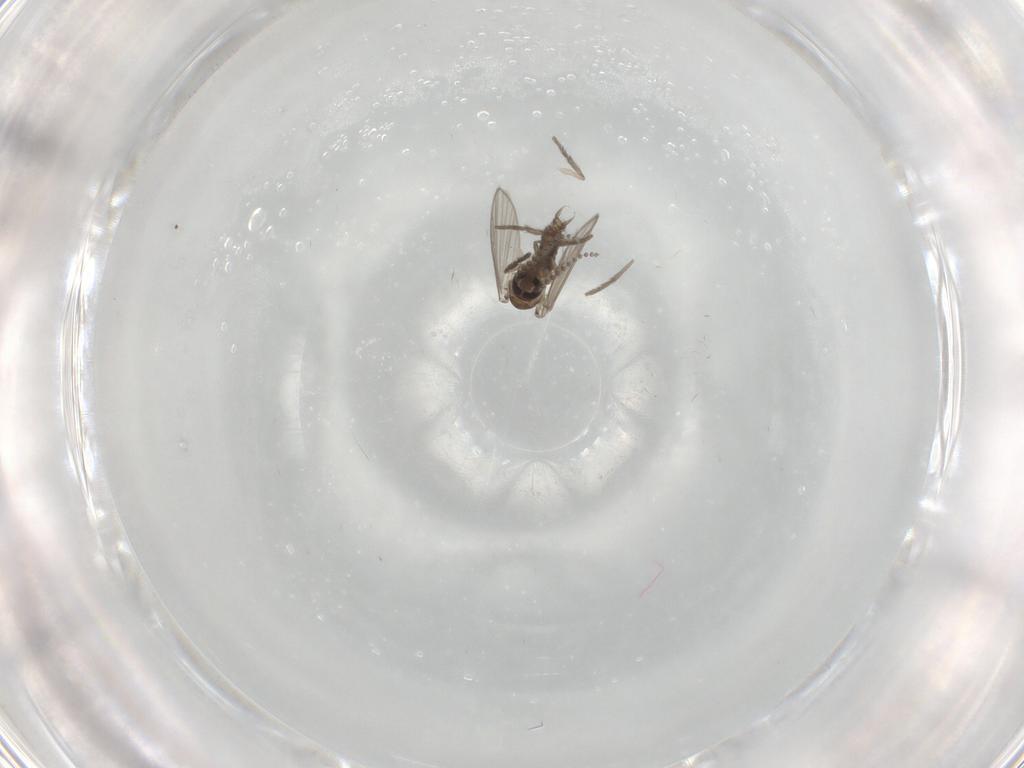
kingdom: Animalia
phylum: Arthropoda
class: Insecta
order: Diptera
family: Psychodidae
